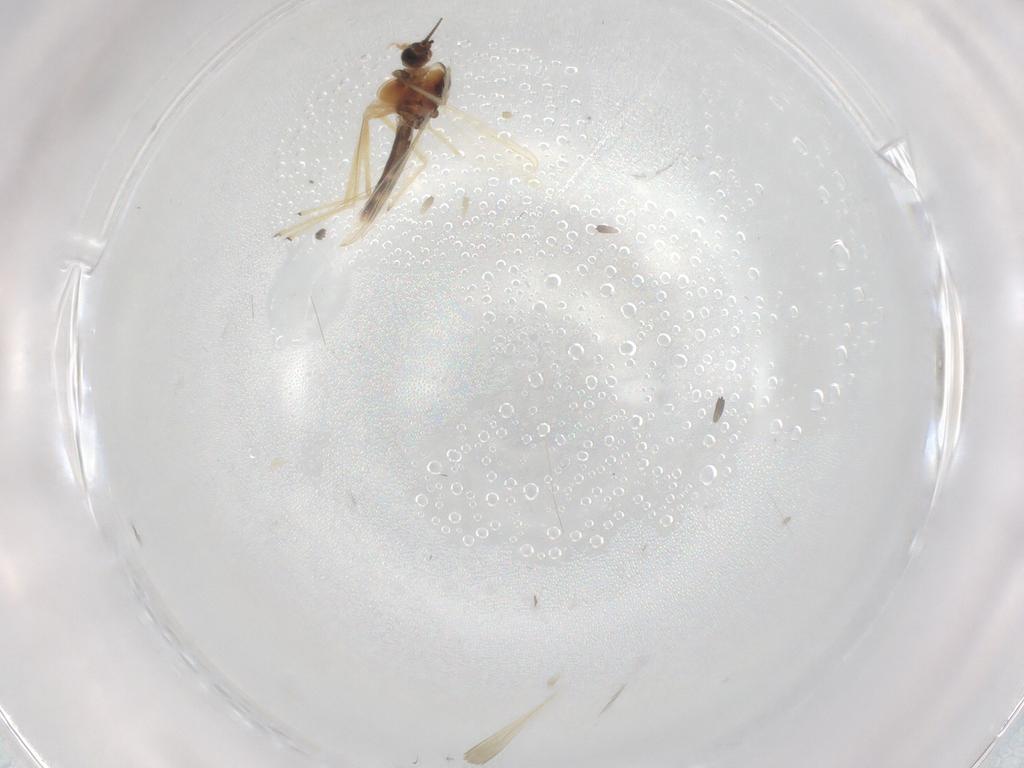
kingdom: Animalia
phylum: Arthropoda
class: Insecta
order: Diptera
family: Chironomidae
